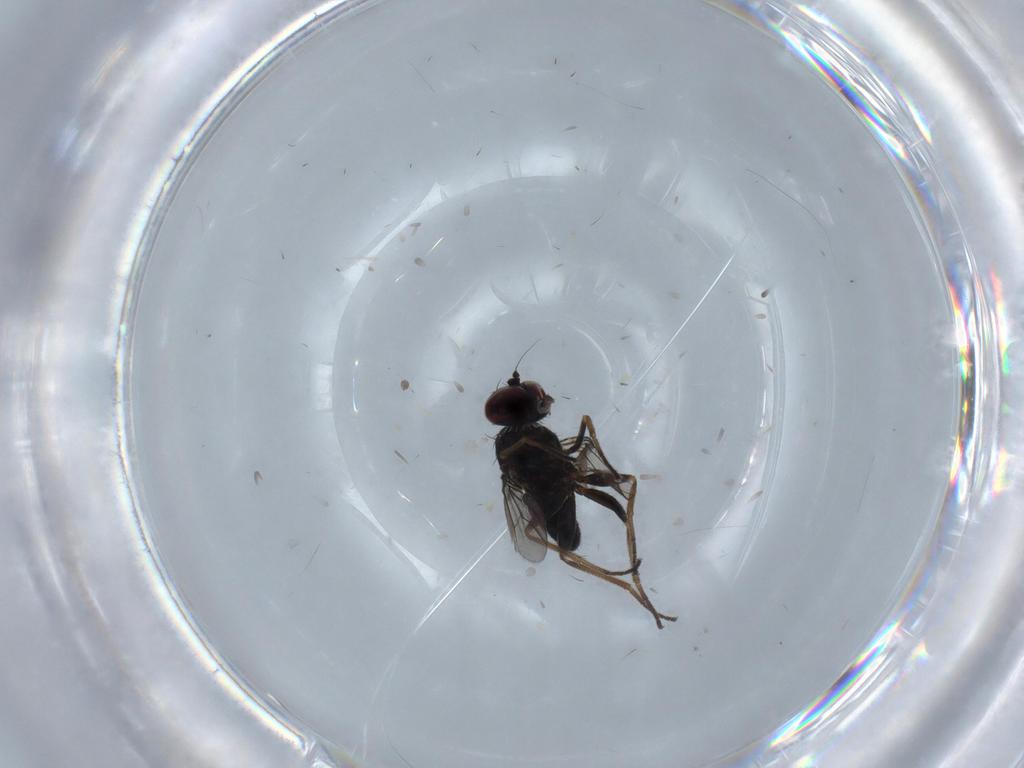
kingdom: Animalia
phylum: Arthropoda
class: Insecta
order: Diptera
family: Dolichopodidae
